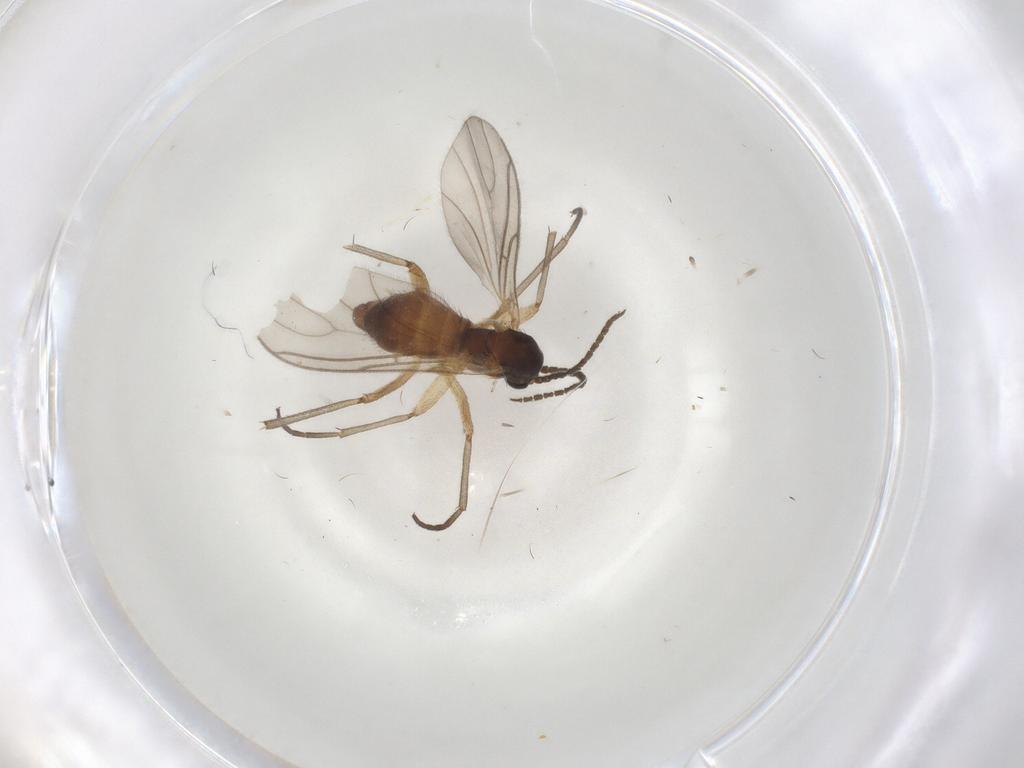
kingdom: Animalia
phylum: Arthropoda
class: Insecta
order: Diptera
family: Sciaridae
